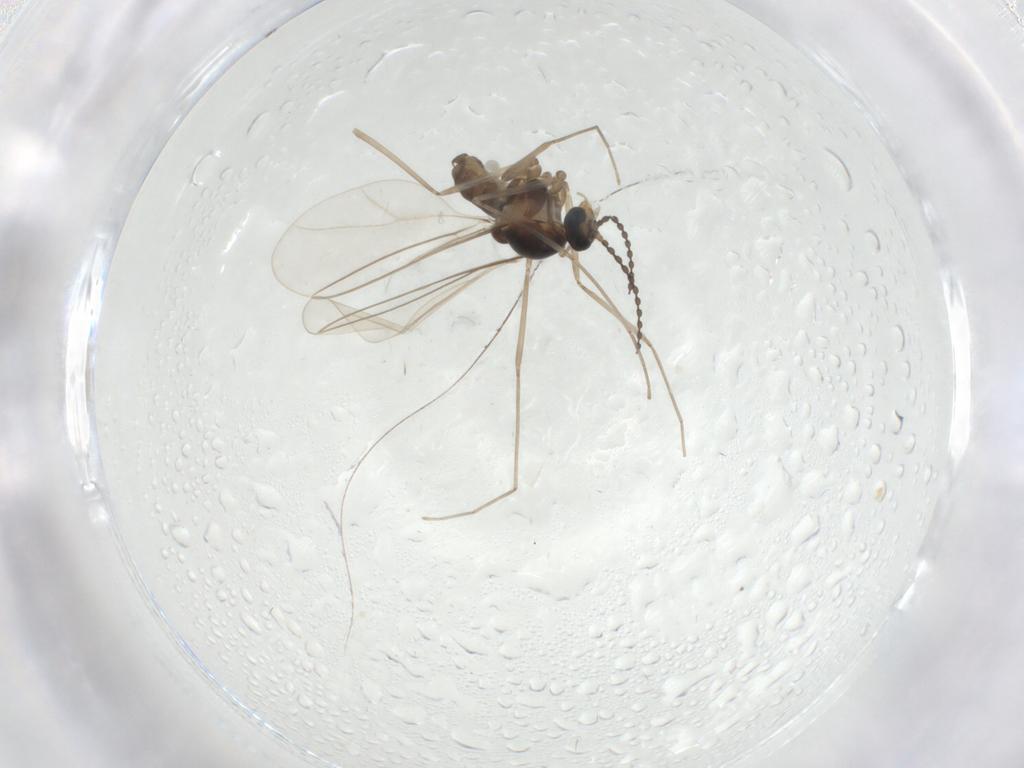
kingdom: Animalia
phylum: Arthropoda
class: Insecta
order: Diptera
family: Cecidomyiidae
